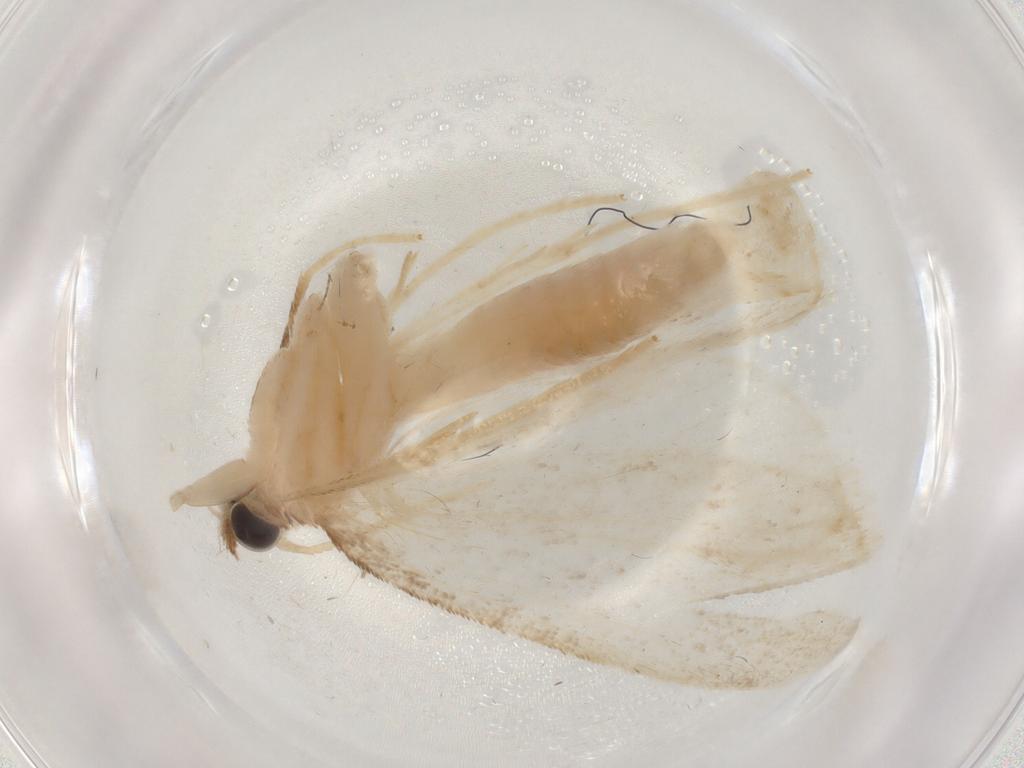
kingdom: Animalia
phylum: Arthropoda
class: Insecta
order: Lepidoptera
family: Crambidae
